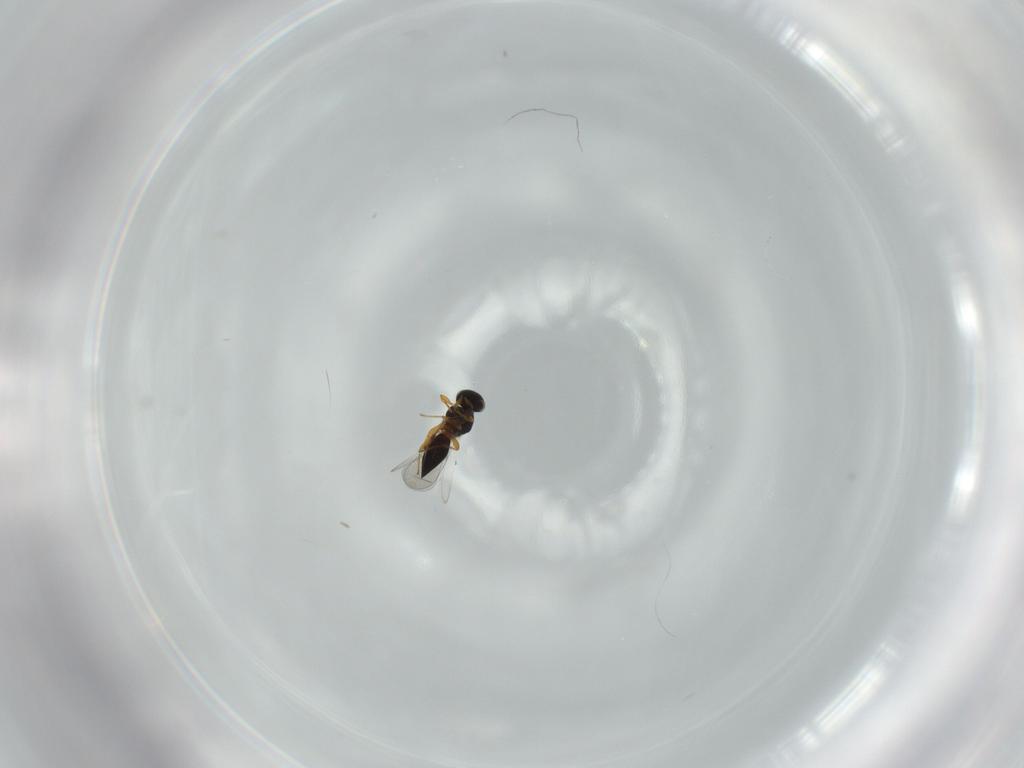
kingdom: Animalia
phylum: Arthropoda
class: Insecta
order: Hymenoptera
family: Platygastridae
